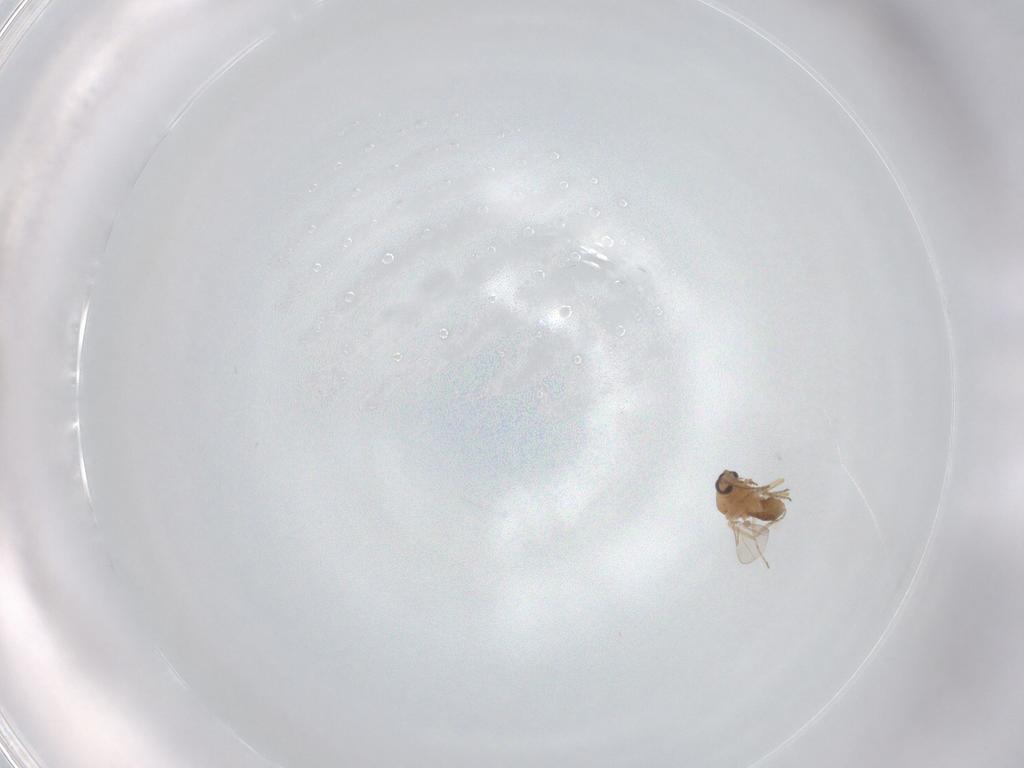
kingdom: Animalia
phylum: Arthropoda
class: Insecta
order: Diptera
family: Ceratopogonidae
